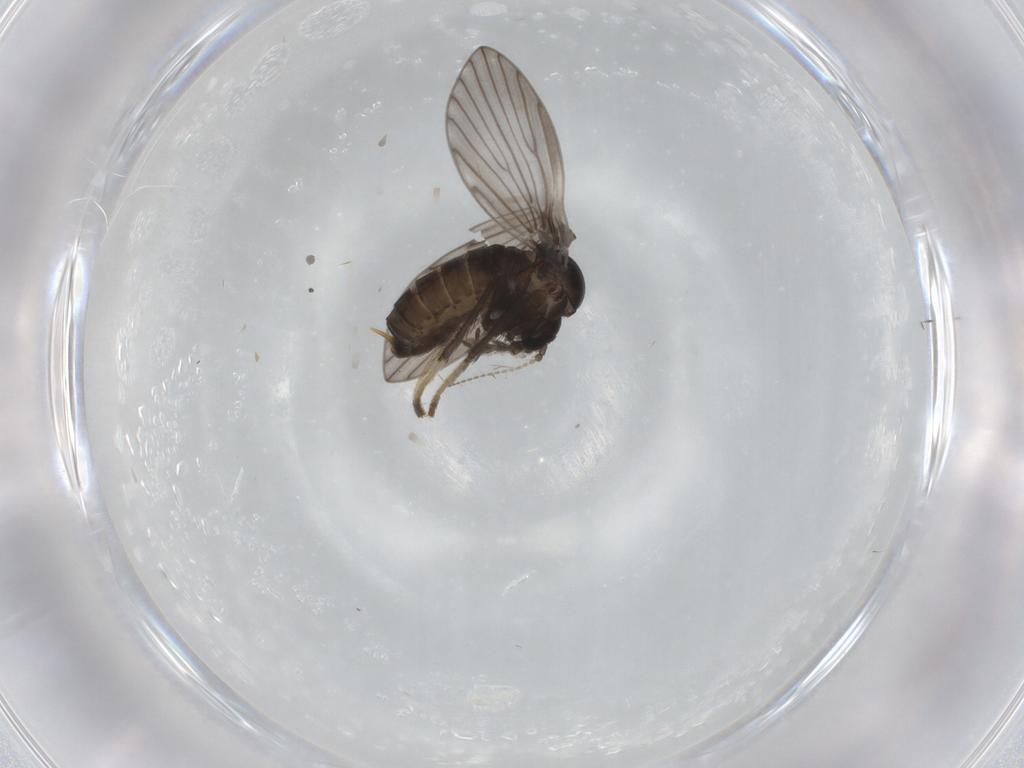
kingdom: Animalia
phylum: Arthropoda
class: Insecta
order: Diptera
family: Psychodidae
